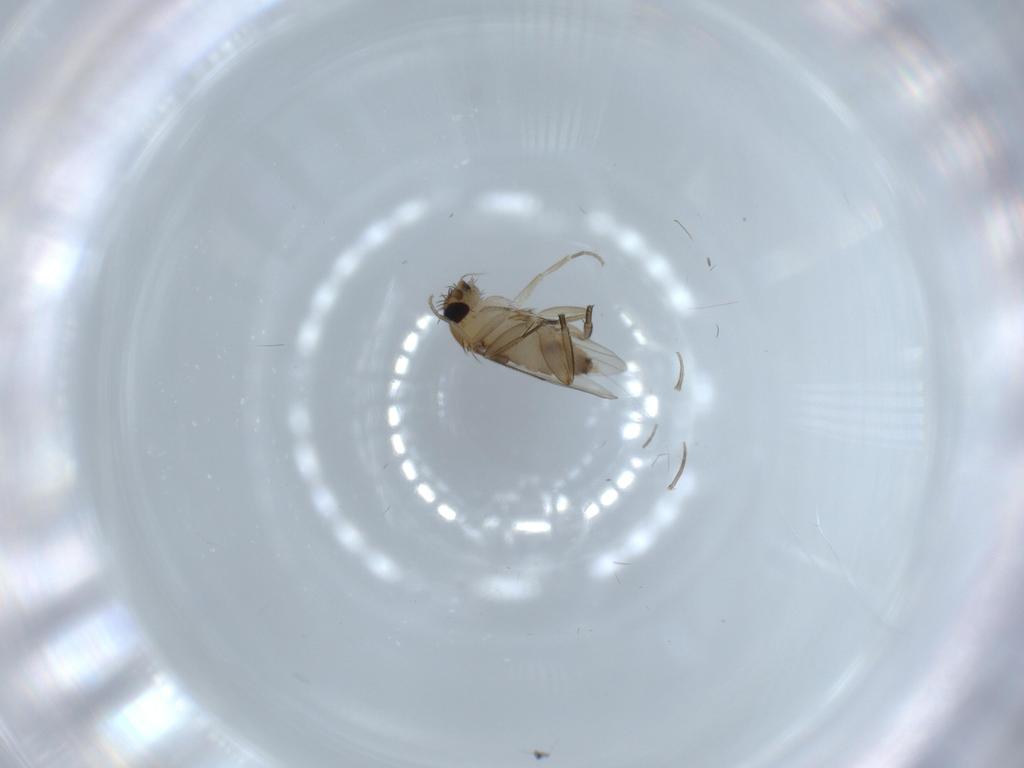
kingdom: Animalia
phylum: Arthropoda
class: Insecta
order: Diptera
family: Phoridae
